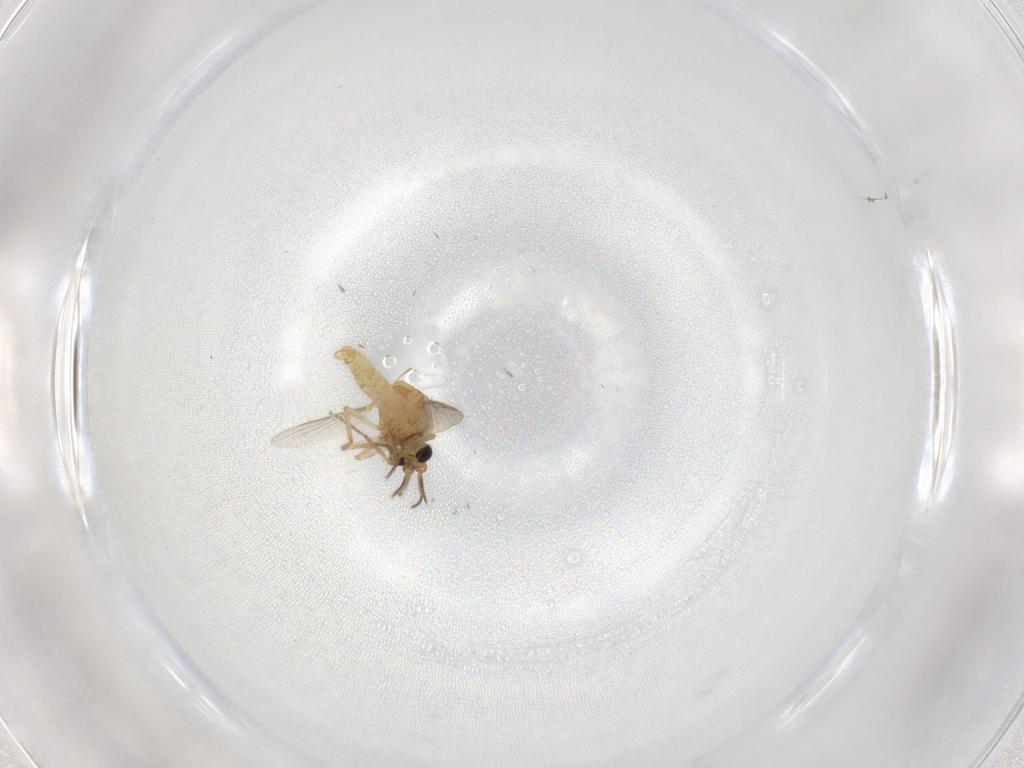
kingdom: Animalia
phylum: Arthropoda
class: Insecta
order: Diptera
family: Ceratopogonidae
